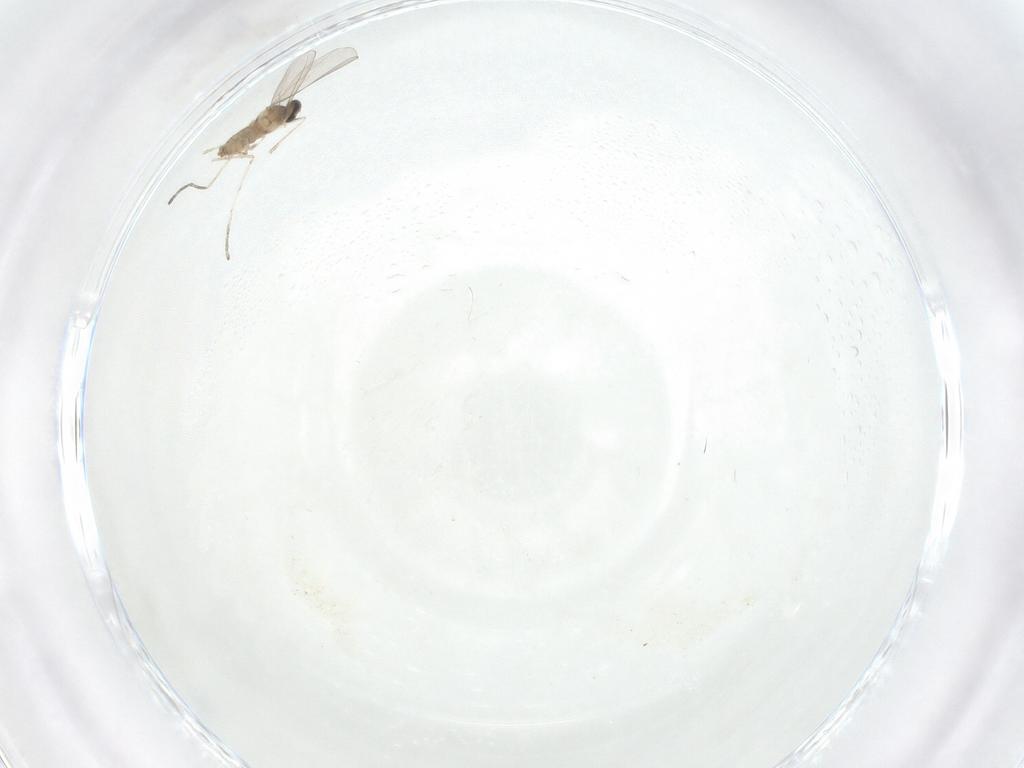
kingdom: Animalia
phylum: Arthropoda
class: Insecta
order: Diptera
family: Cecidomyiidae
